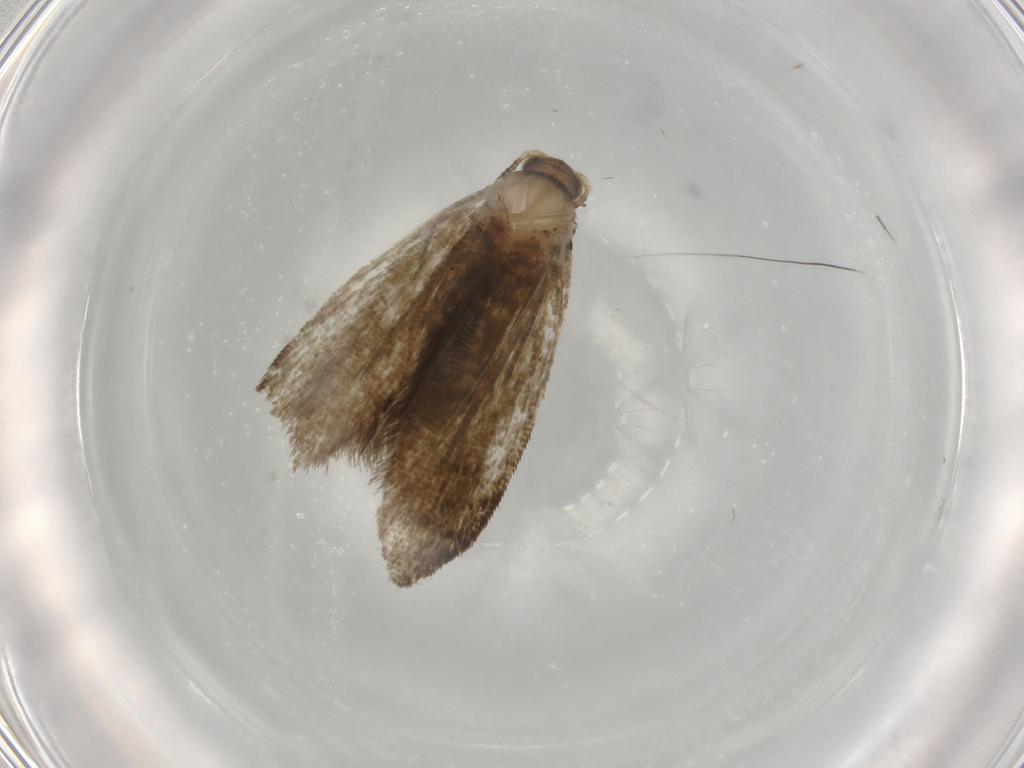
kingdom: Animalia
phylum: Arthropoda
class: Insecta
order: Lepidoptera
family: Crambidae
